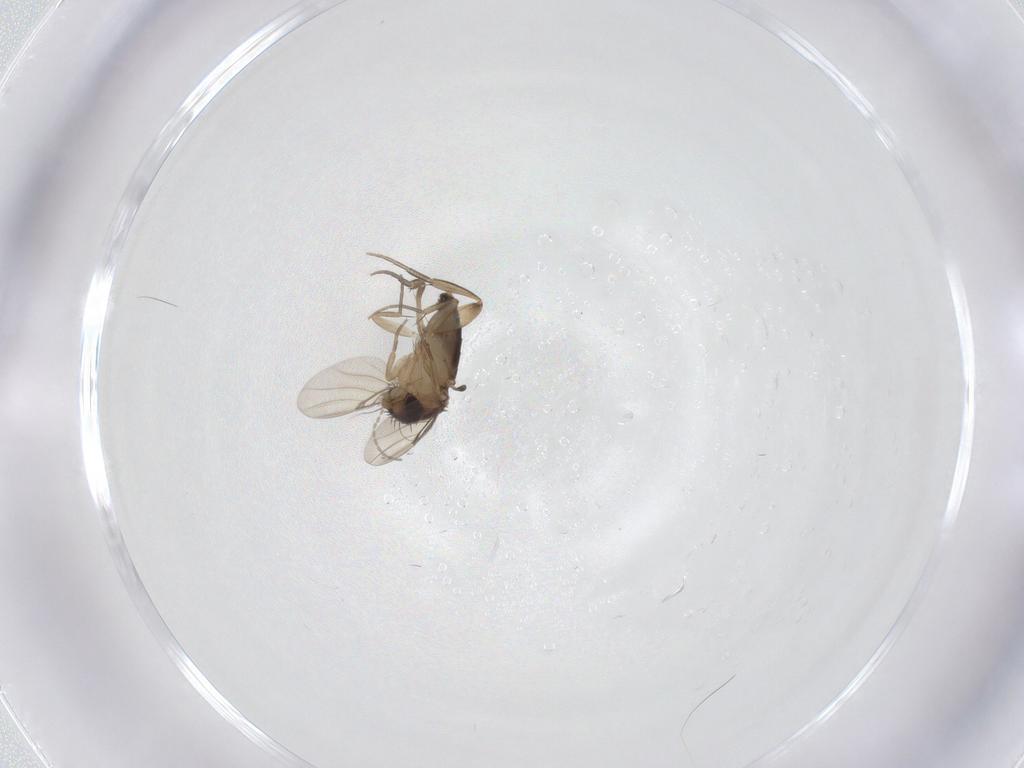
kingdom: Animalia
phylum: Arthropoda
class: Insecta
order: Diptera
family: Phoridae
